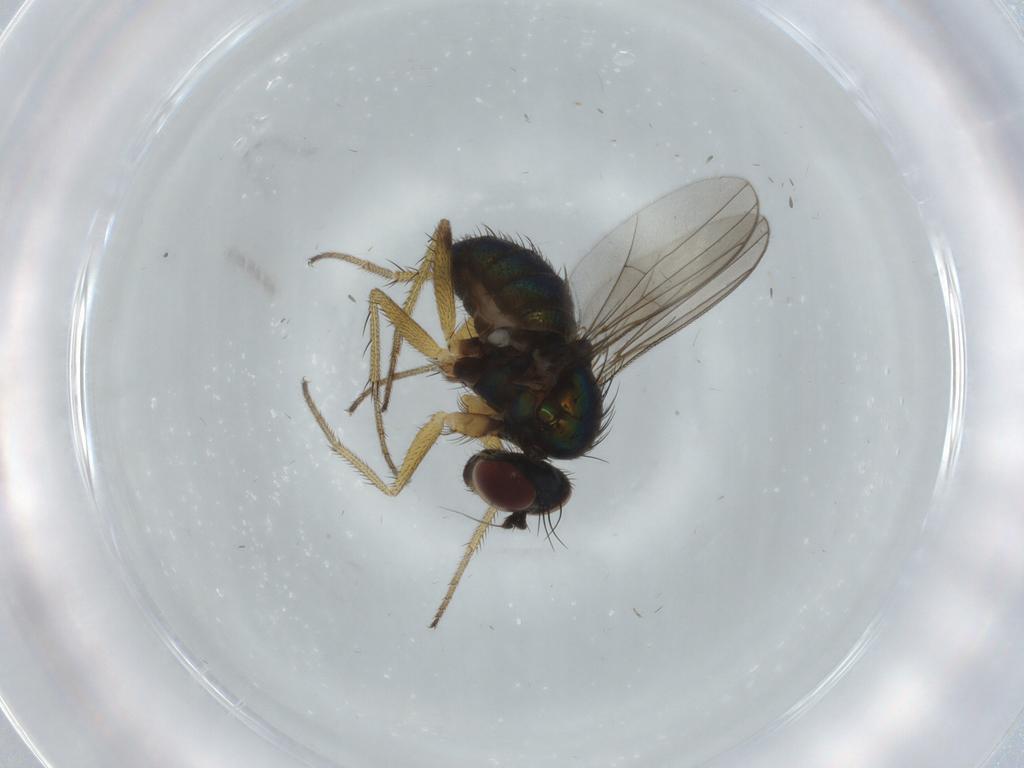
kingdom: Animalia
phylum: Arthropoda
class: Insecta
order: Diptera
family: Dolichopodidae
